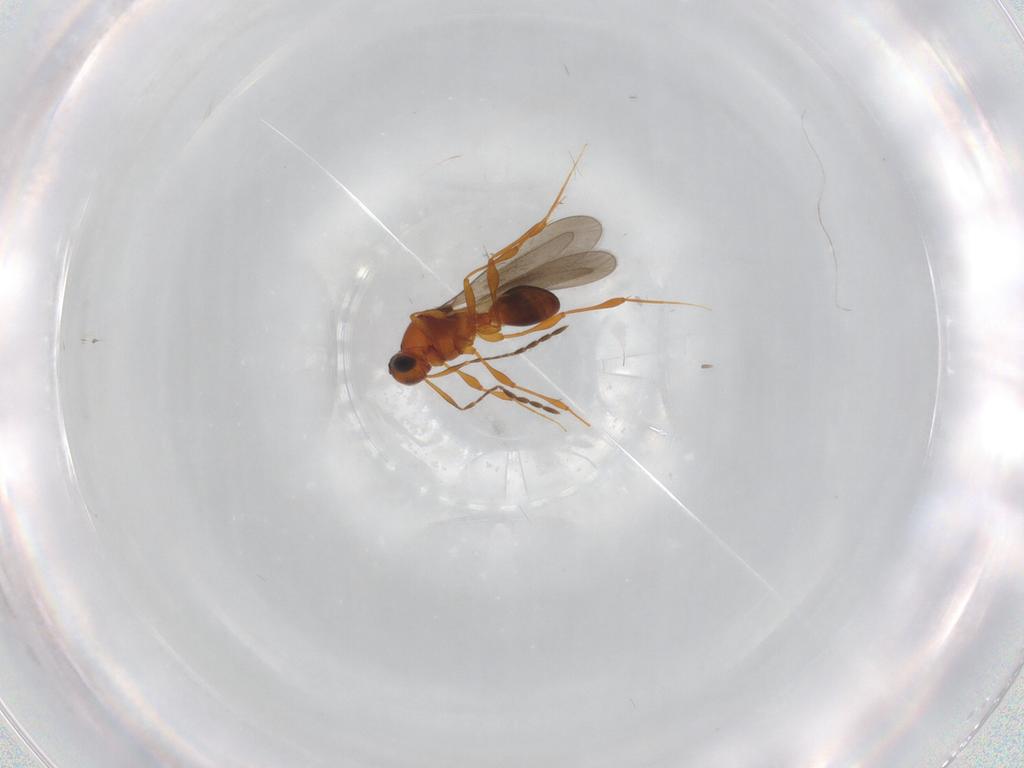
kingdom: Animalia
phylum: Arthropoda
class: Insecta
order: Hymenoptera
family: Platygastridae
